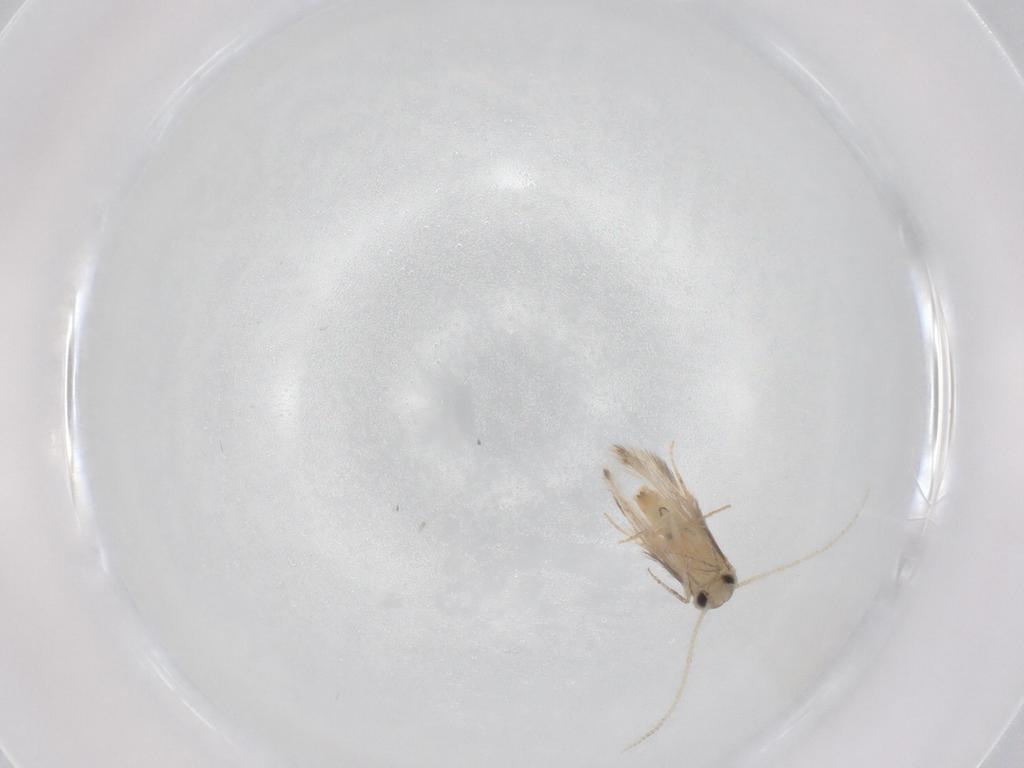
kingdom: Animalia
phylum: Arthropoda
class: Insecta
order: Trichoptera
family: Hydroptilidae
